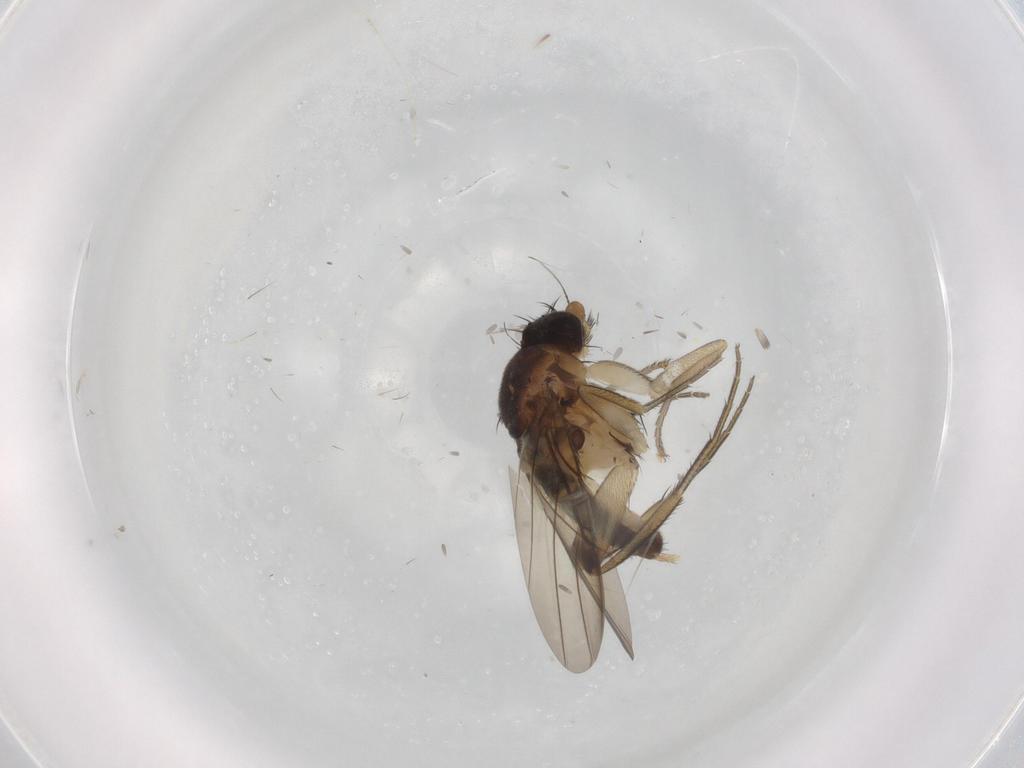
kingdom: Animalia
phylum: Arthropoda
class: Insecta
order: Diptera
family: Phoridae
